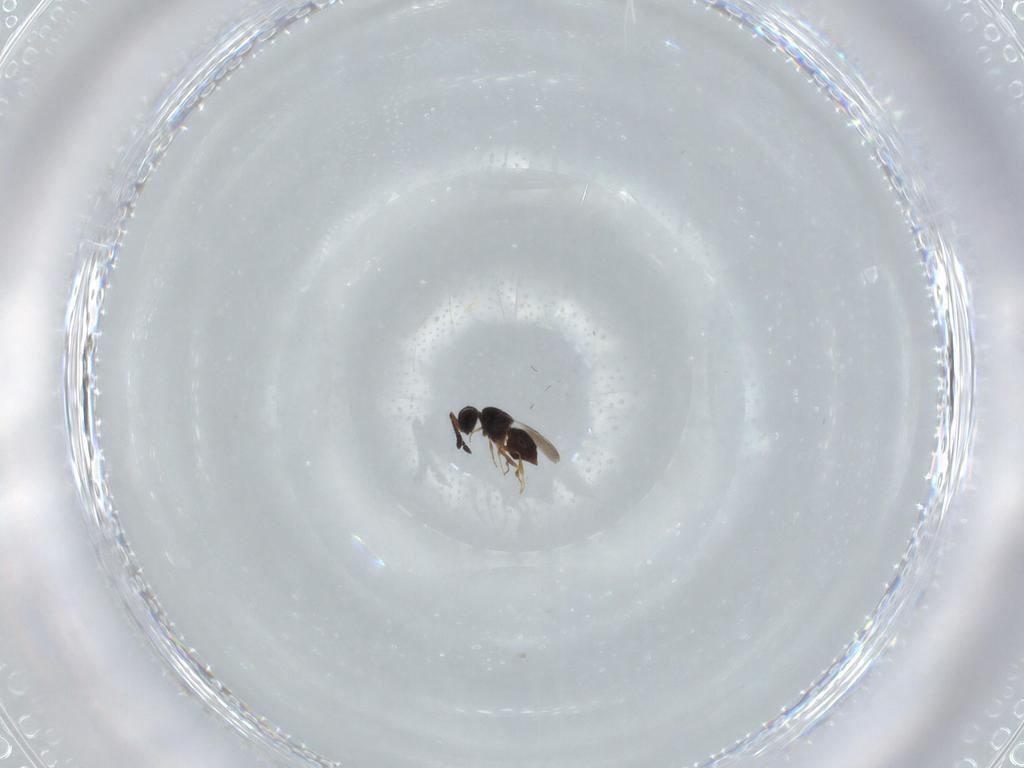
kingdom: Animalia
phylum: Arthropoda
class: Insecta
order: Hymenoptera
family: Ceraphronidae
